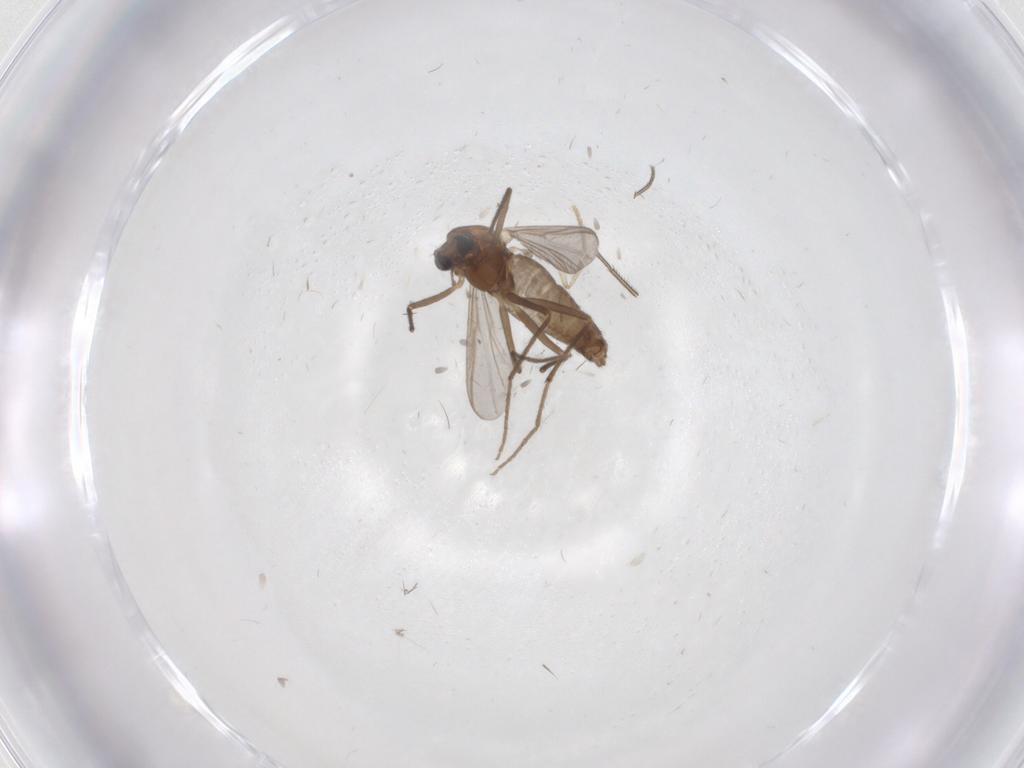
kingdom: Animalia
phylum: Arthropoda
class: Insecta
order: Diptera
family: Chironomidae
